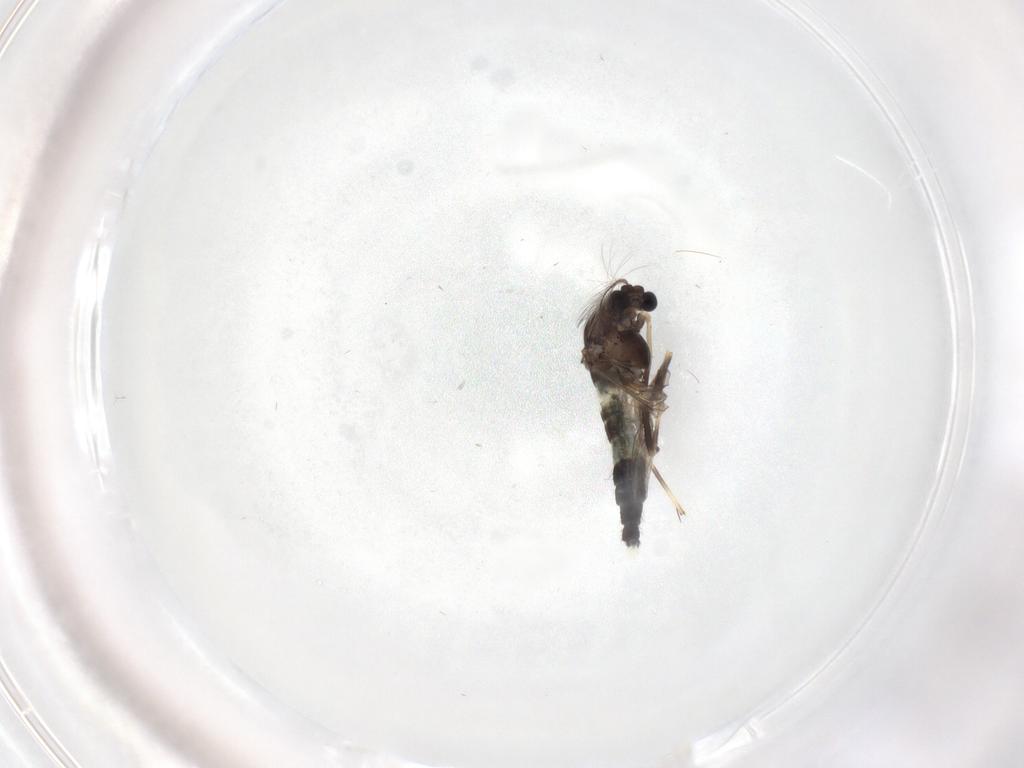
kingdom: Animalia
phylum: Arthropoda
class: Insecta
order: Diptera
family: Chironomidae
